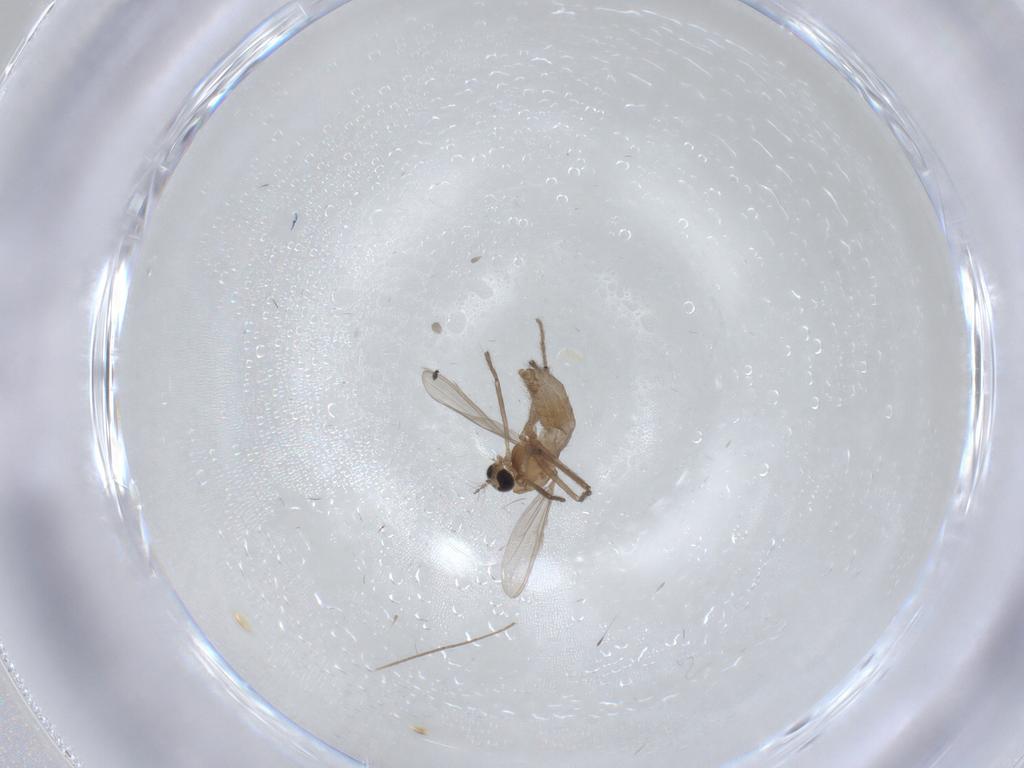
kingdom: Animalia
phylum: Arthropoda
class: Insecta
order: Diptera
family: Chironomidae
